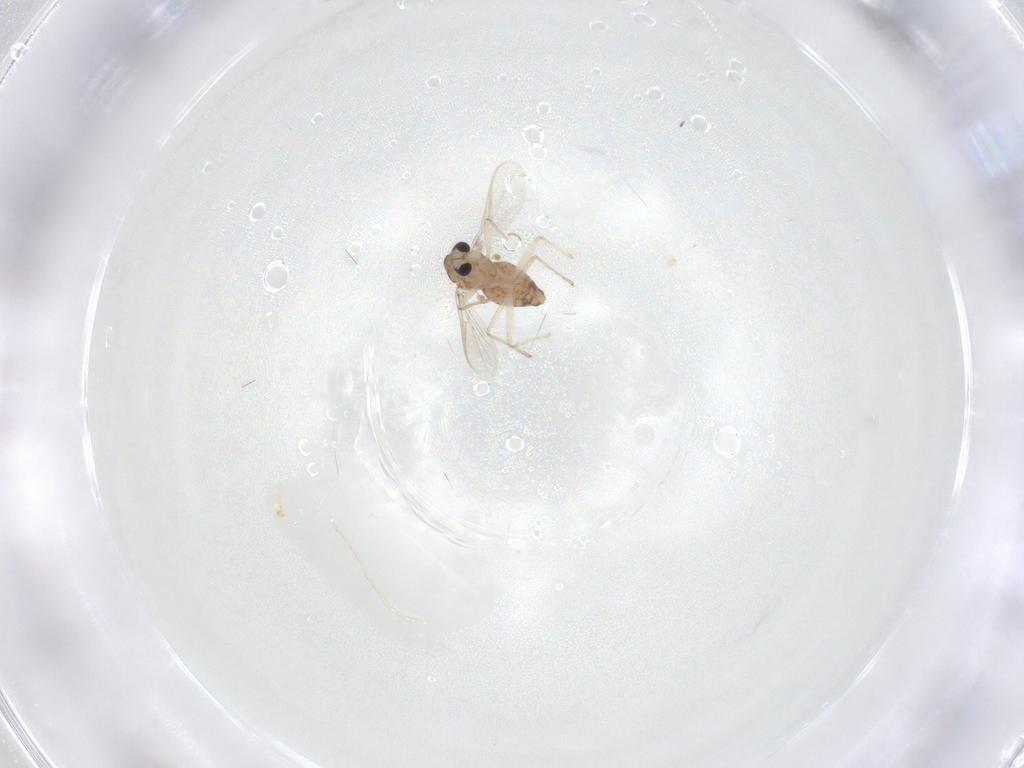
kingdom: Animalia
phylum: Arthropoda
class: Insecta
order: Diptera
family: Chironomidae
